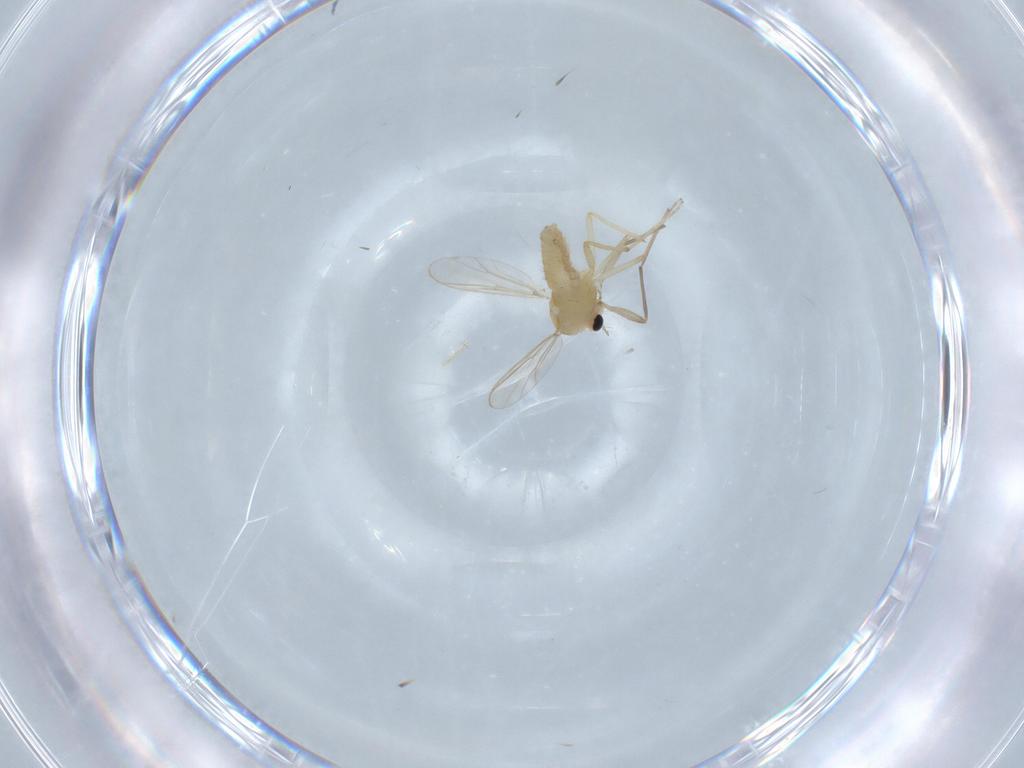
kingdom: Animalia
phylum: Arthropoda
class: Insecta
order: Diptera
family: Chironomidae
